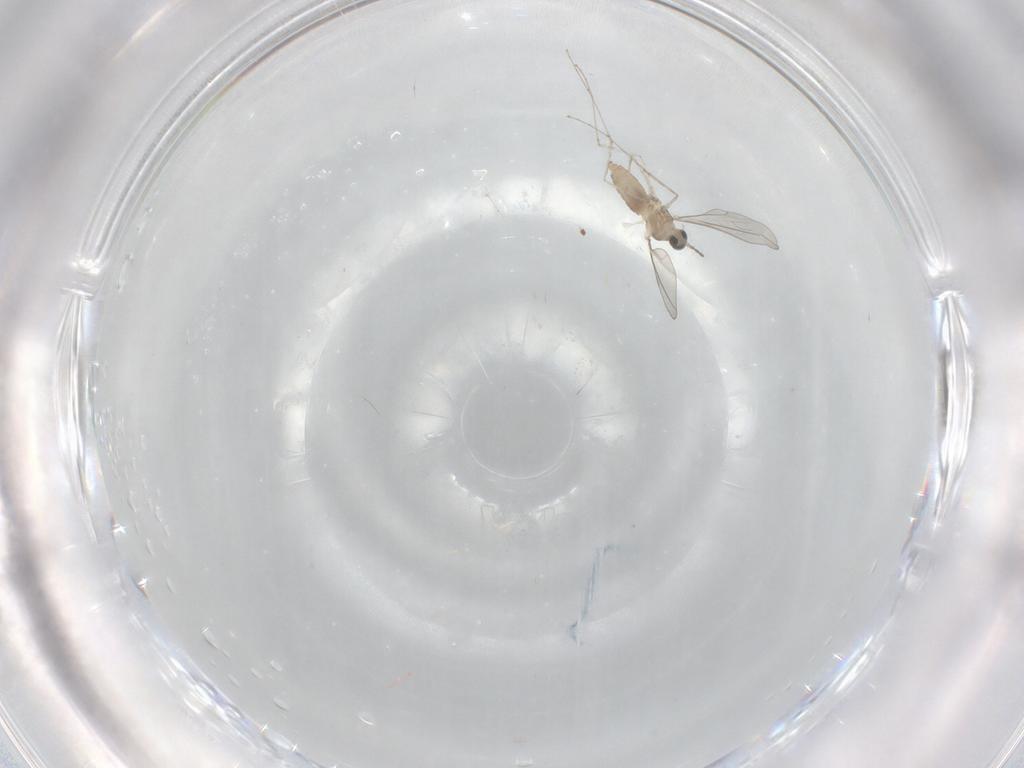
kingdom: Animalia
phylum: Arthropoda
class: Insecta
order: Diptera
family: Cecidomyiidae
